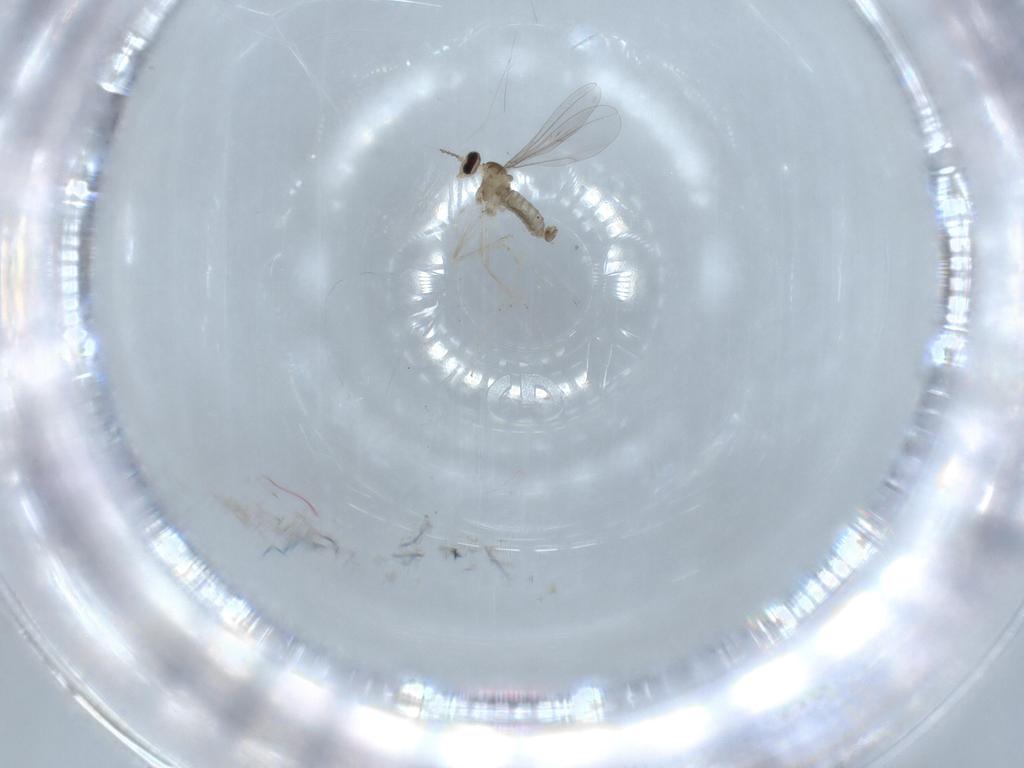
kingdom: Animalia
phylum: Arthropoda
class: Insecta
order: Diptera
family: Cecidomyiidae
